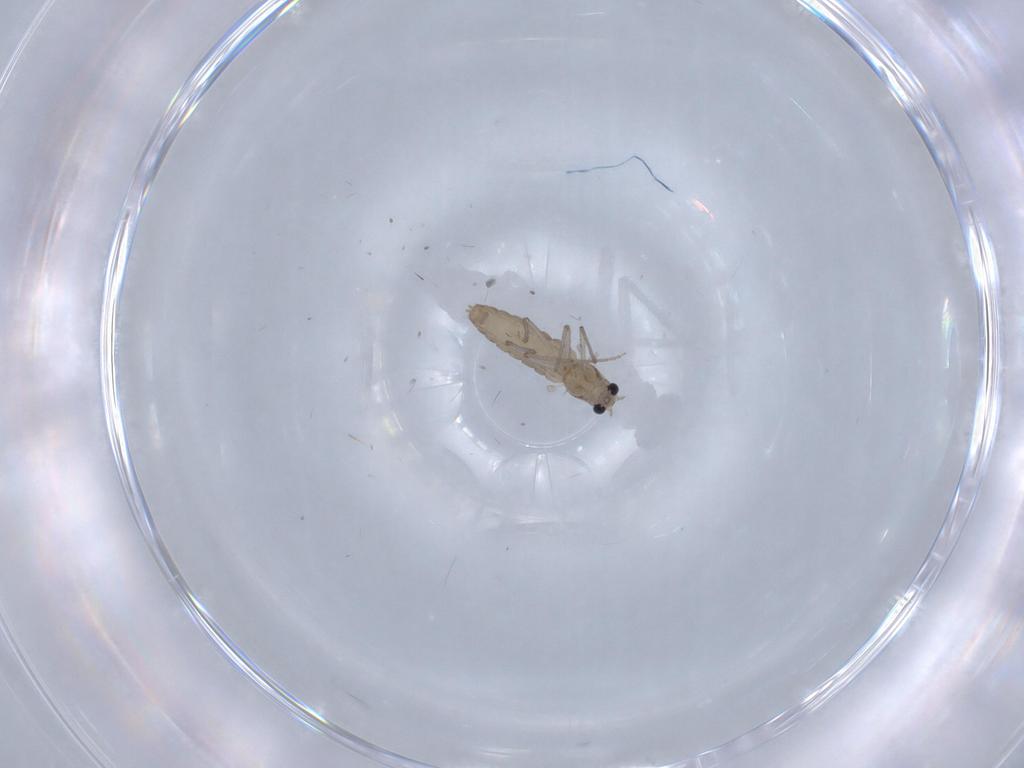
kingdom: Animalia
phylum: Arthropoda
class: Insecta
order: Diptera
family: Chironomidae
